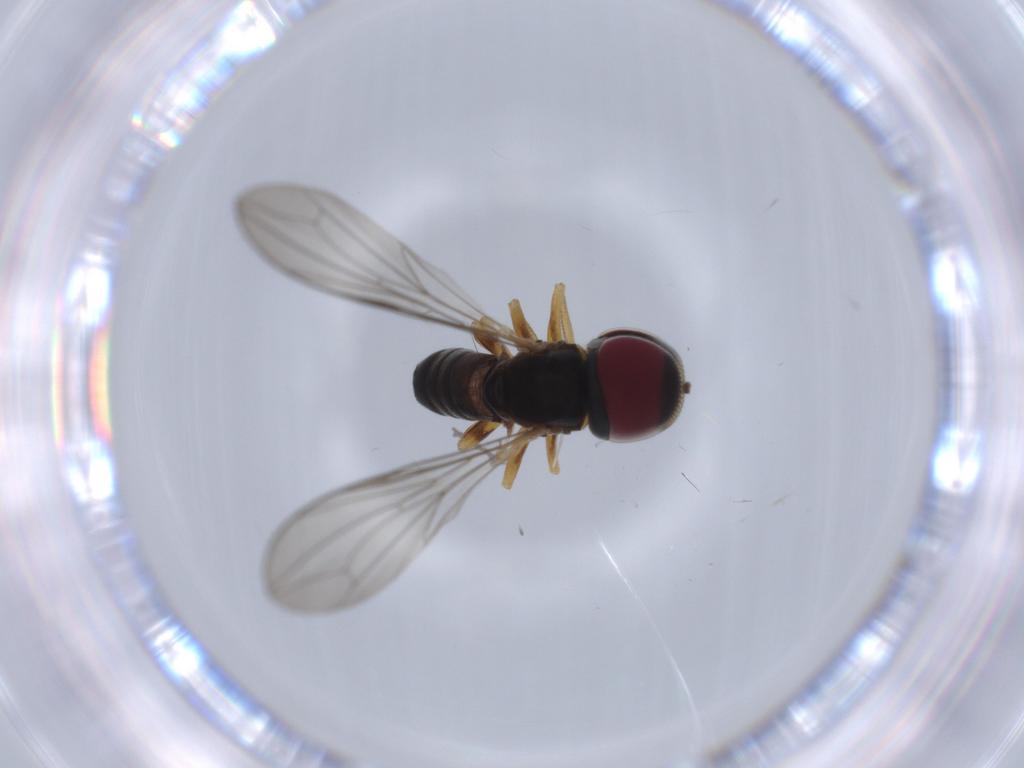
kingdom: Animalia
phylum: Arthropoda
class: Insecta
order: Diptera
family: Pipunculidae
